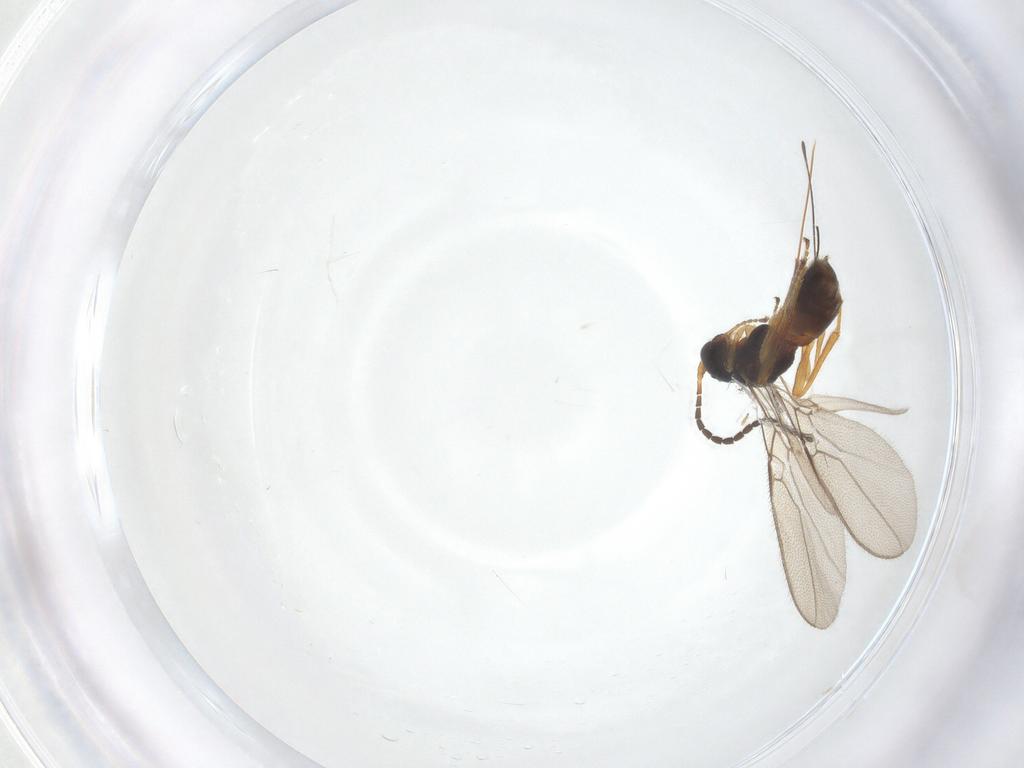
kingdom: Animalia
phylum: Arthropoda
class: Insecta
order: Hymenoptera
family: Braconidae
